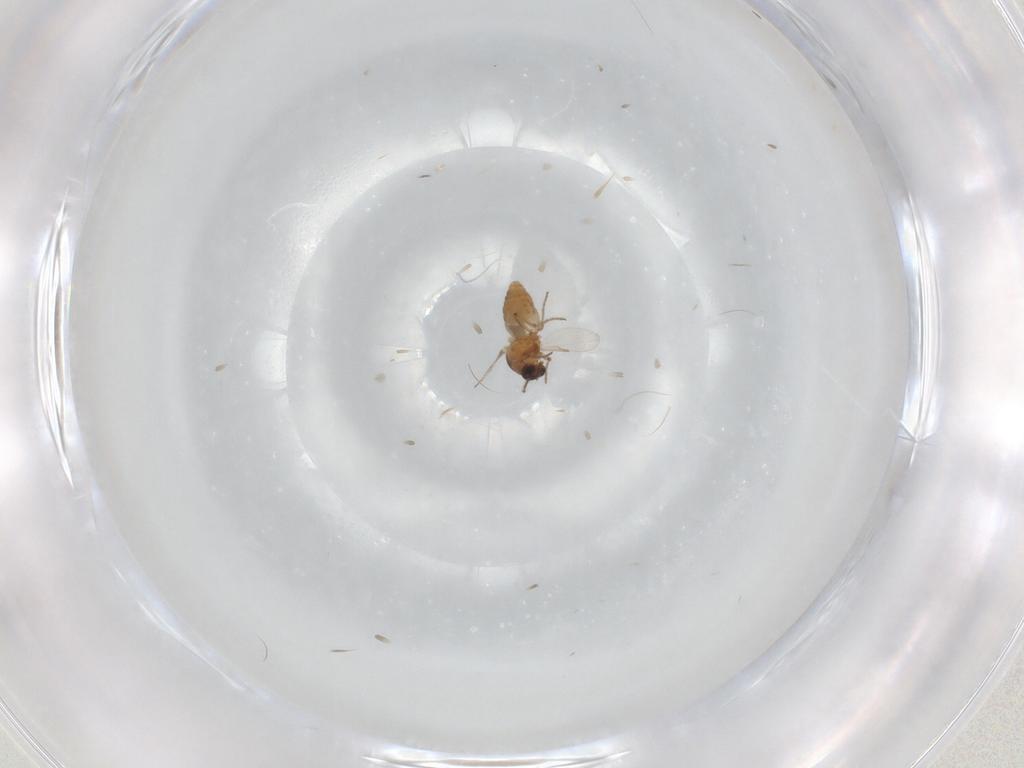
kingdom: Animalia
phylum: Arthropoda
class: Insecta
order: Diptera
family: Ceratopogonidae
